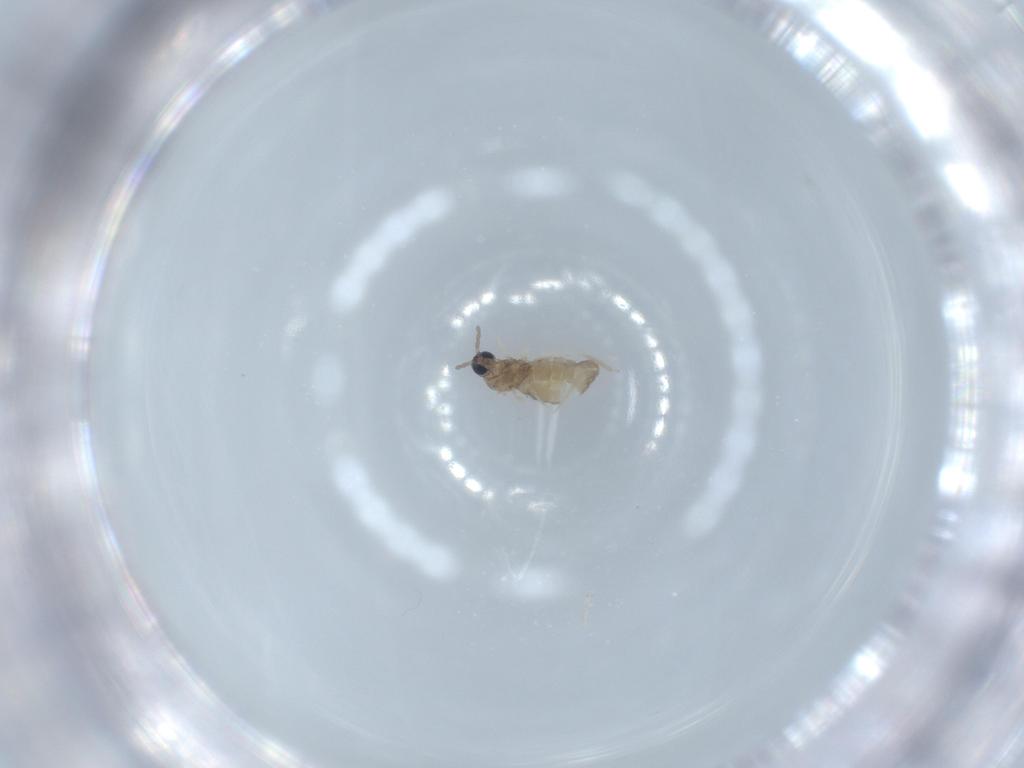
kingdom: Animalia
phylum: Arthropoda
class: Insecta
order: Diptera
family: Cecidomyiidae
